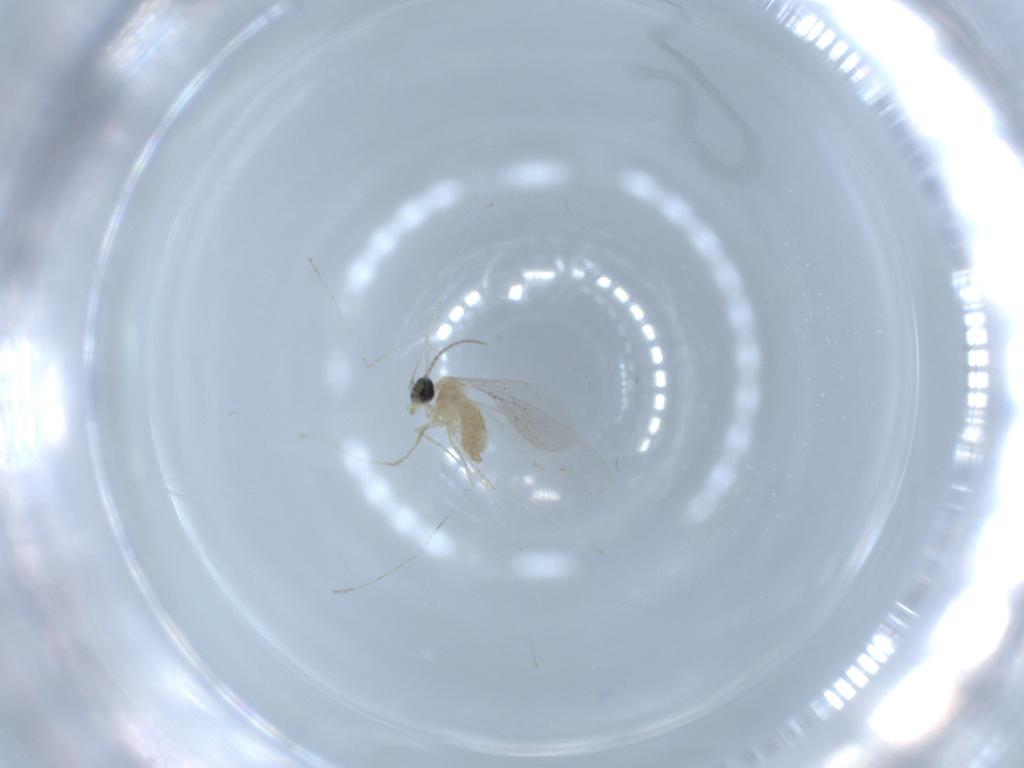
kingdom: Animalia
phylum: Arthropoda
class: Insecta
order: Diptera
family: Cecidomyiidae
